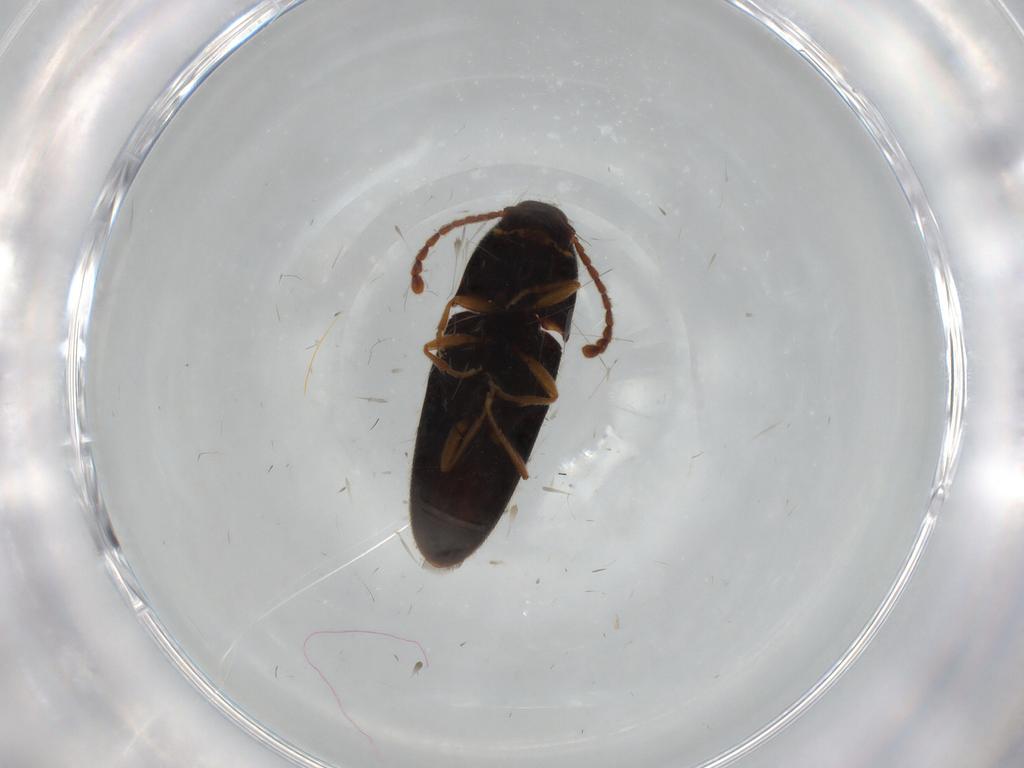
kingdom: Animalia
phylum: Arthropoda
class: Insecta
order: Coleoptera
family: Elateridae
